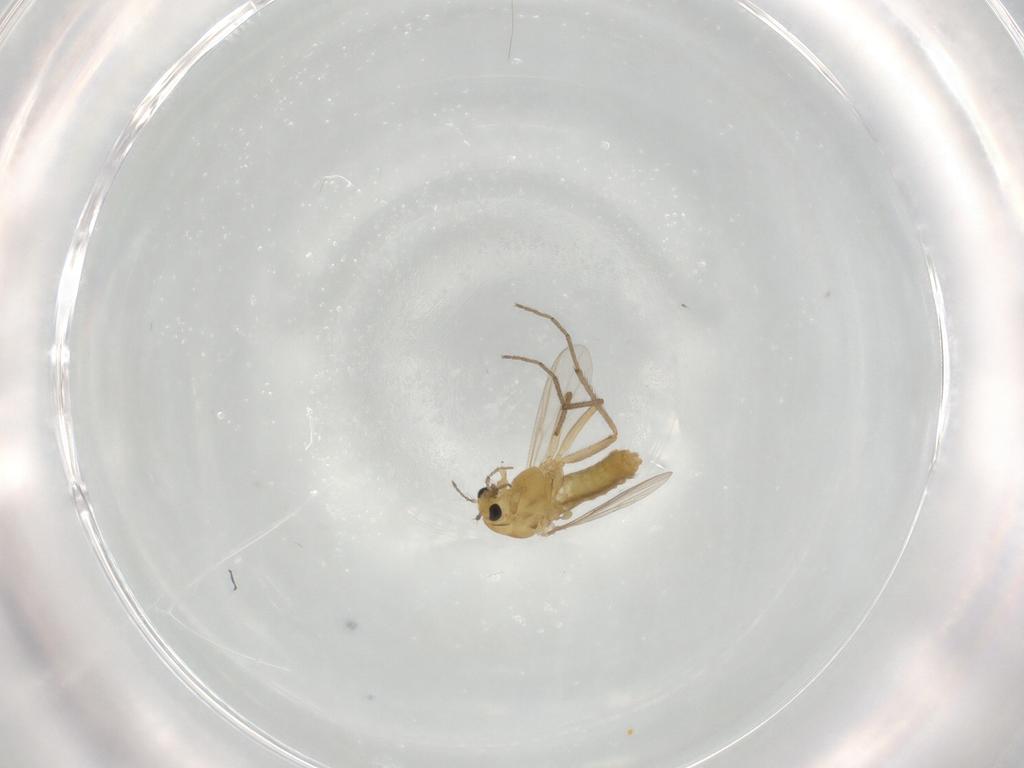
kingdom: Animalia
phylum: Arthropoda
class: Insecta
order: Diptera
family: Chironomidae
